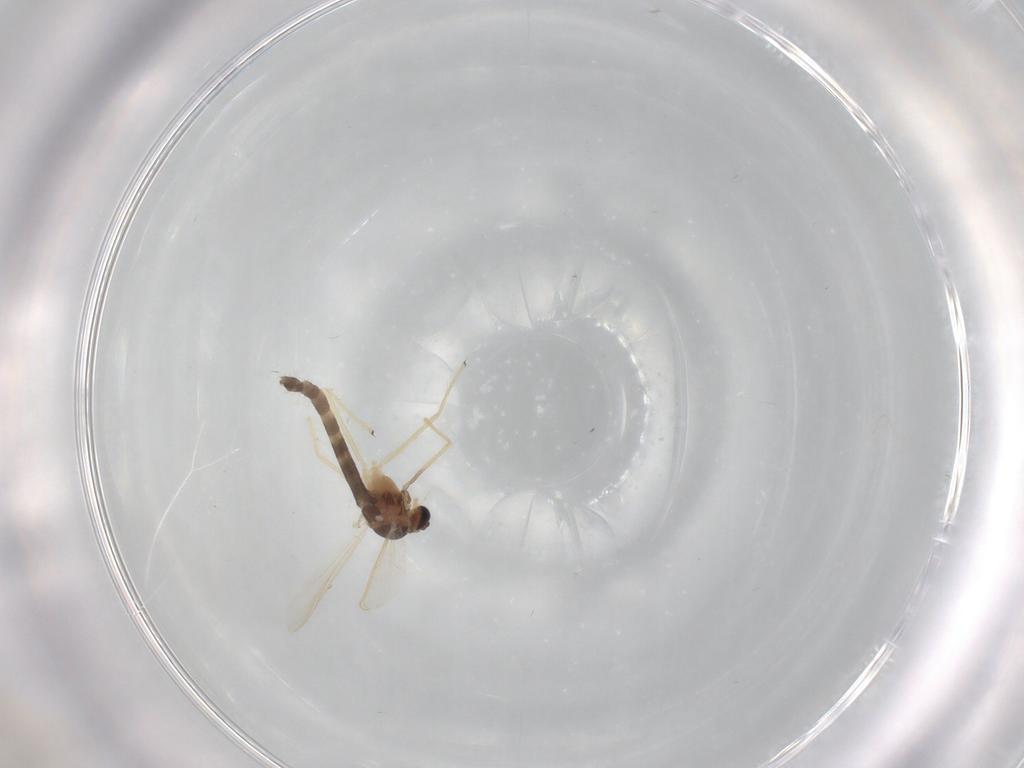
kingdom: Animalia
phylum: Arthropoda
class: Insecta
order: Diptera
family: Chironomidae
